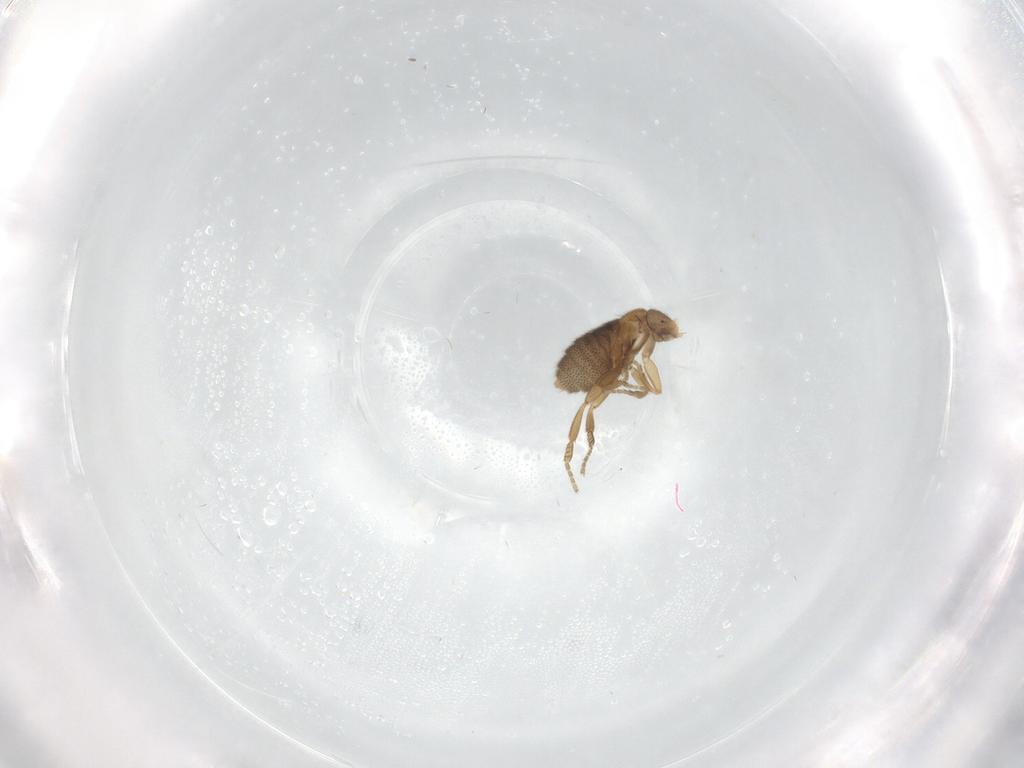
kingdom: Animalia
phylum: Arthropoda
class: Insecta
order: Diptera
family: Phoridae
